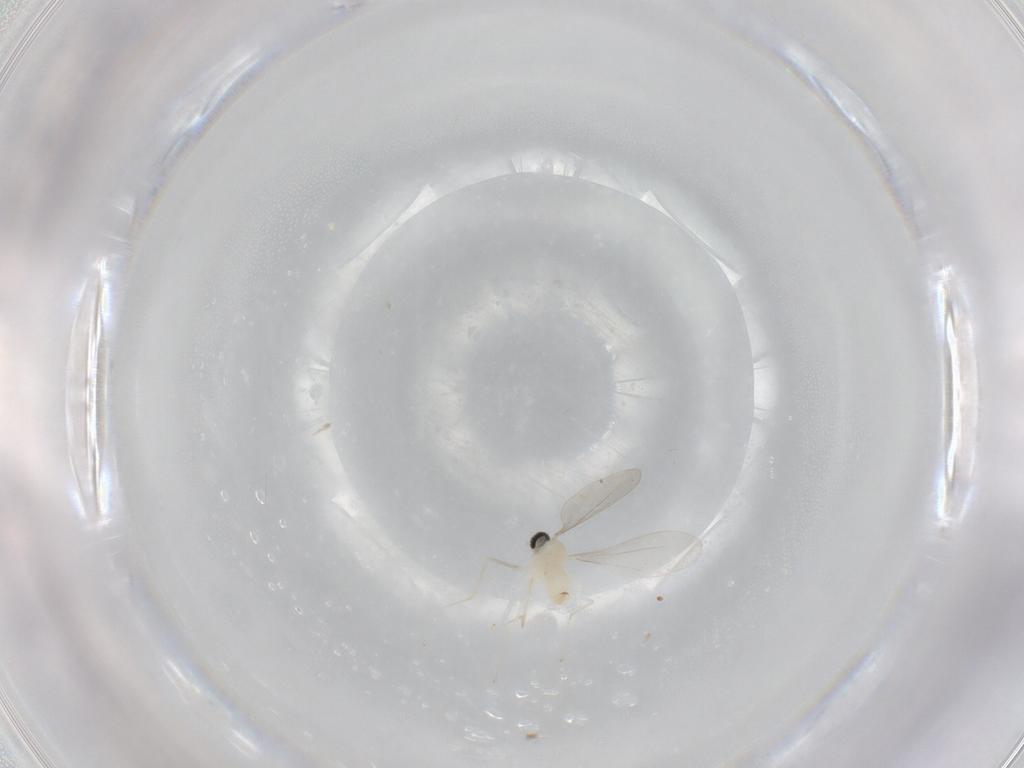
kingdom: Animalia
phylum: Arthropoda
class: Insecta
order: Diptera
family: Cecidomyiidae
